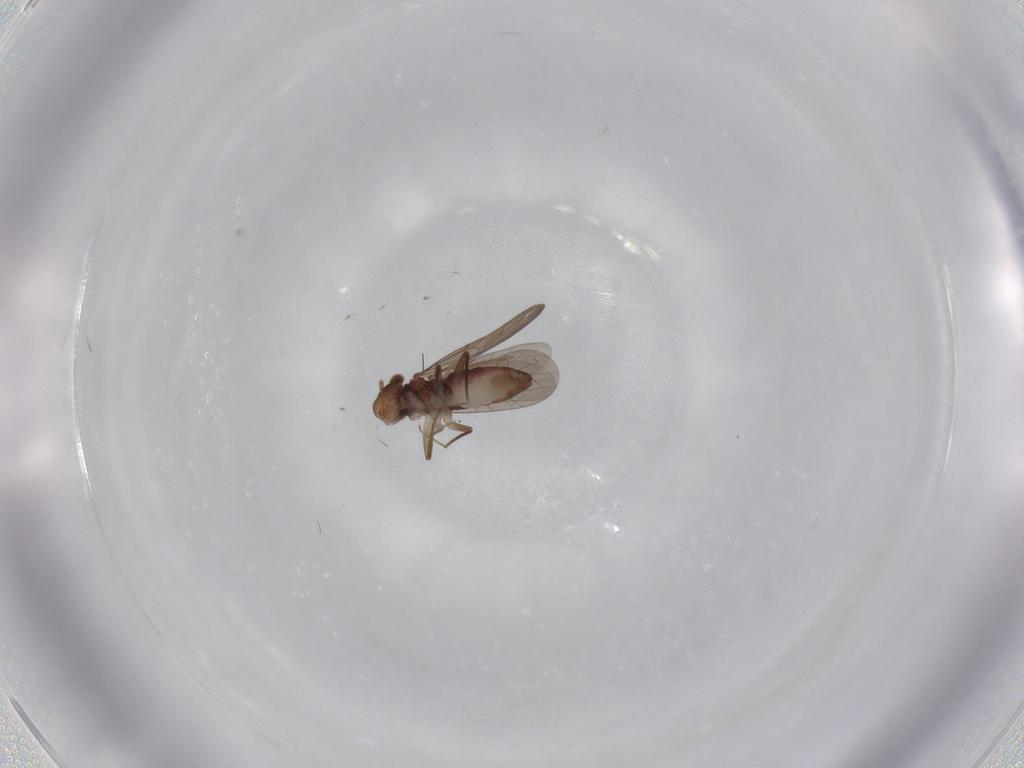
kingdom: Animalia
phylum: Arthropoda
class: Insecta
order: Psocodea
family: Lepidopsocidae
